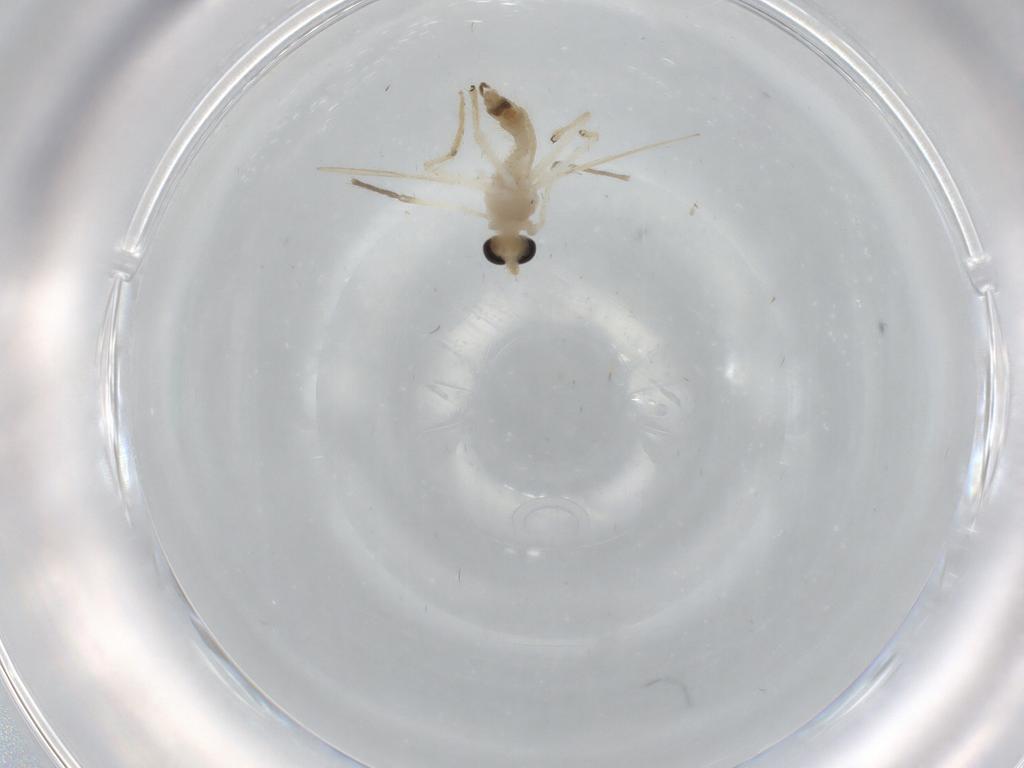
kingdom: Animalia
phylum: Arthropoda
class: Insecta
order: Diptera
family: Chironomidae
